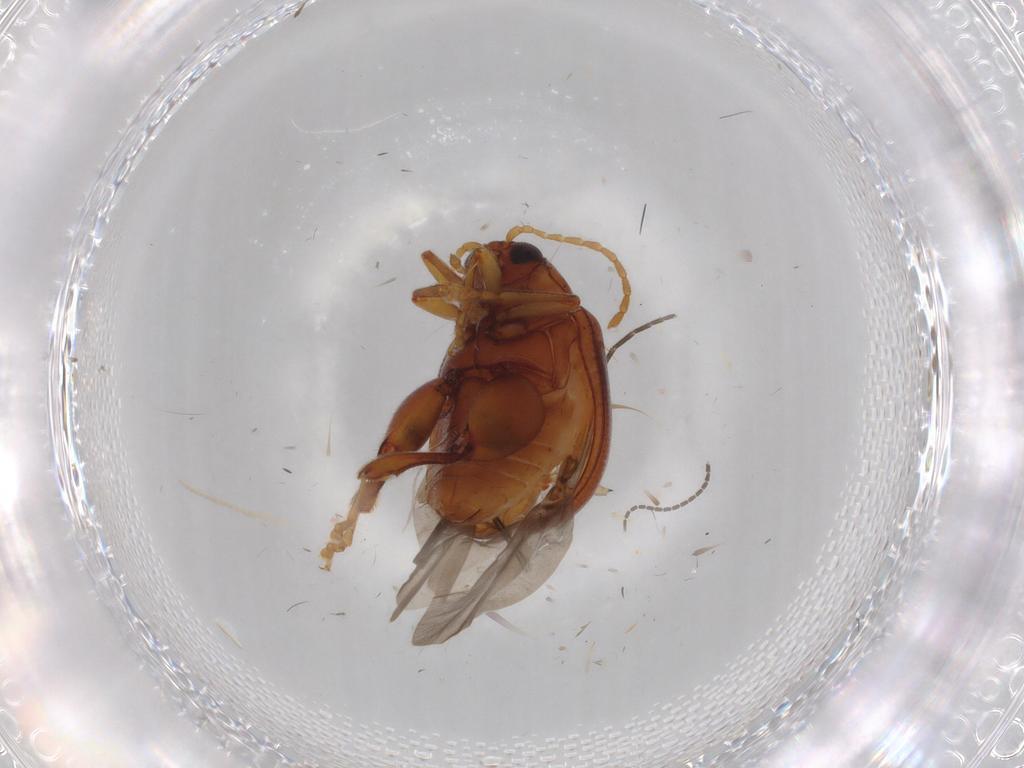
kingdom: Animalia
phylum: Arthropoda
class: Insecta
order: Coleoptera
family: Chrysomelidae
